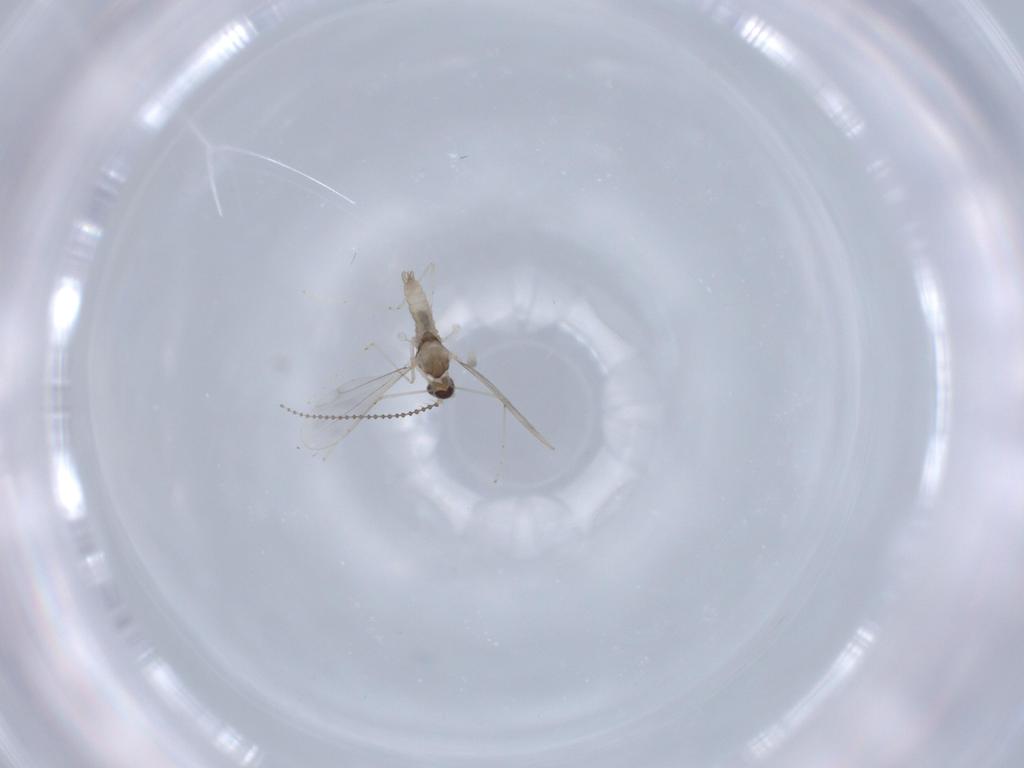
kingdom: Animalia
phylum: Arthropoda
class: Insecta
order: Diptera
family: Cecidomyiidae
